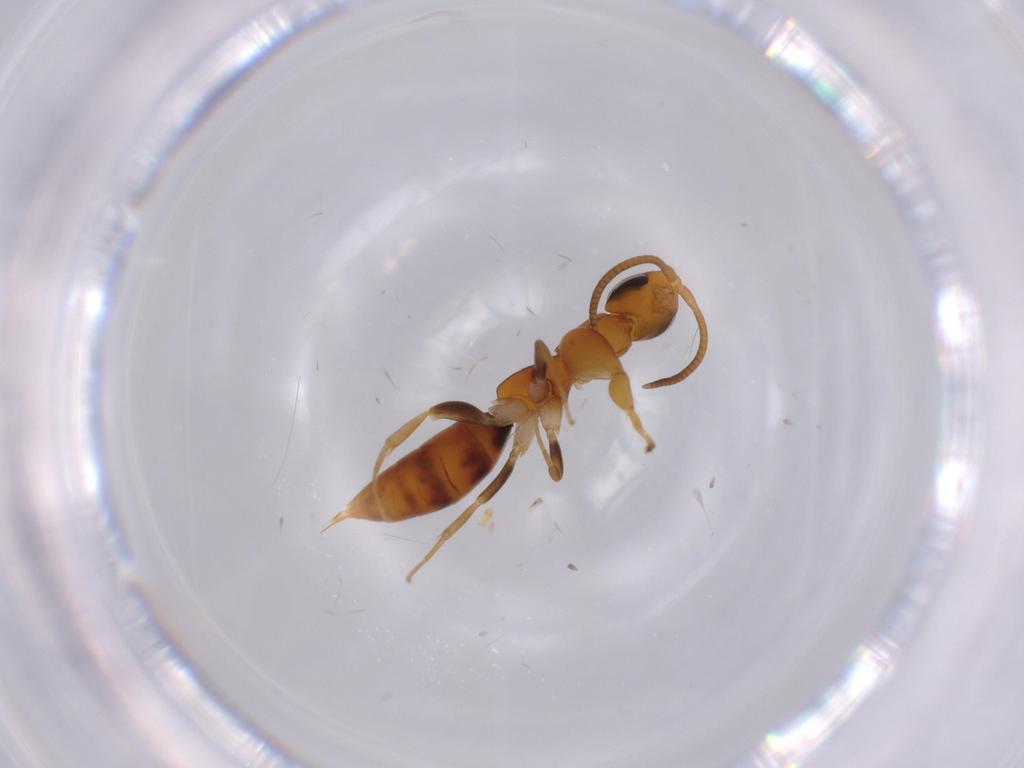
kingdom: Animalia
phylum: Arthropoda
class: Insecta
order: Hymenoptera
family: Sclerogibbidae
